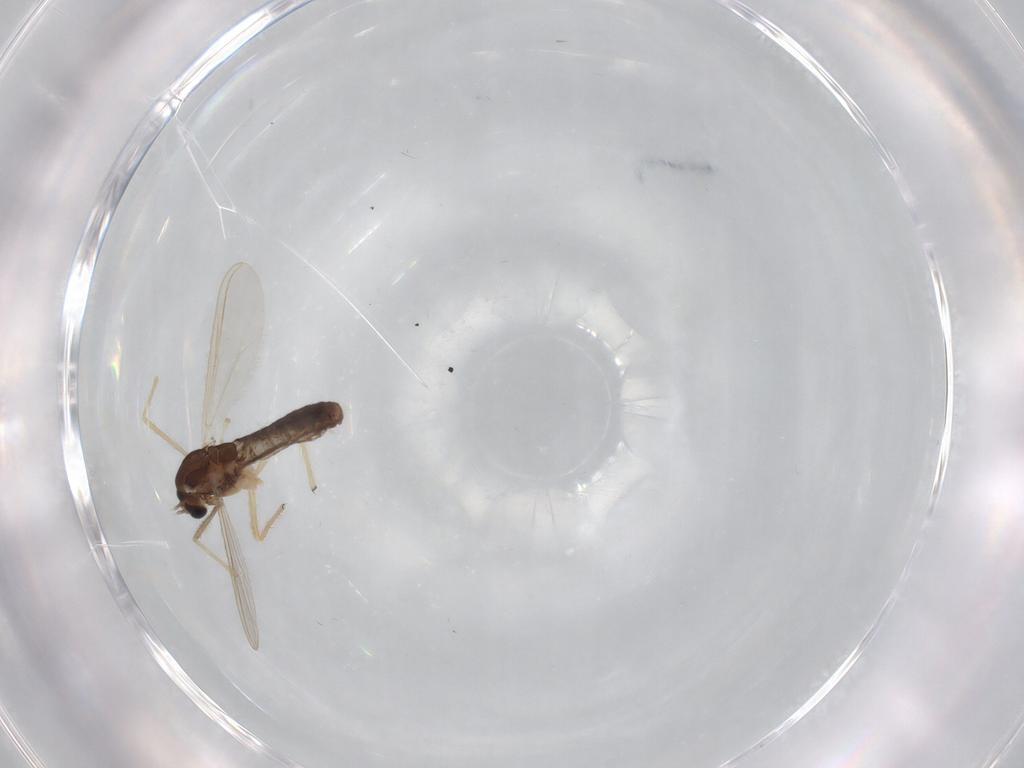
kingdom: Animalia
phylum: Arthropoda
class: Insecta
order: Diptera
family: Chironomidae
